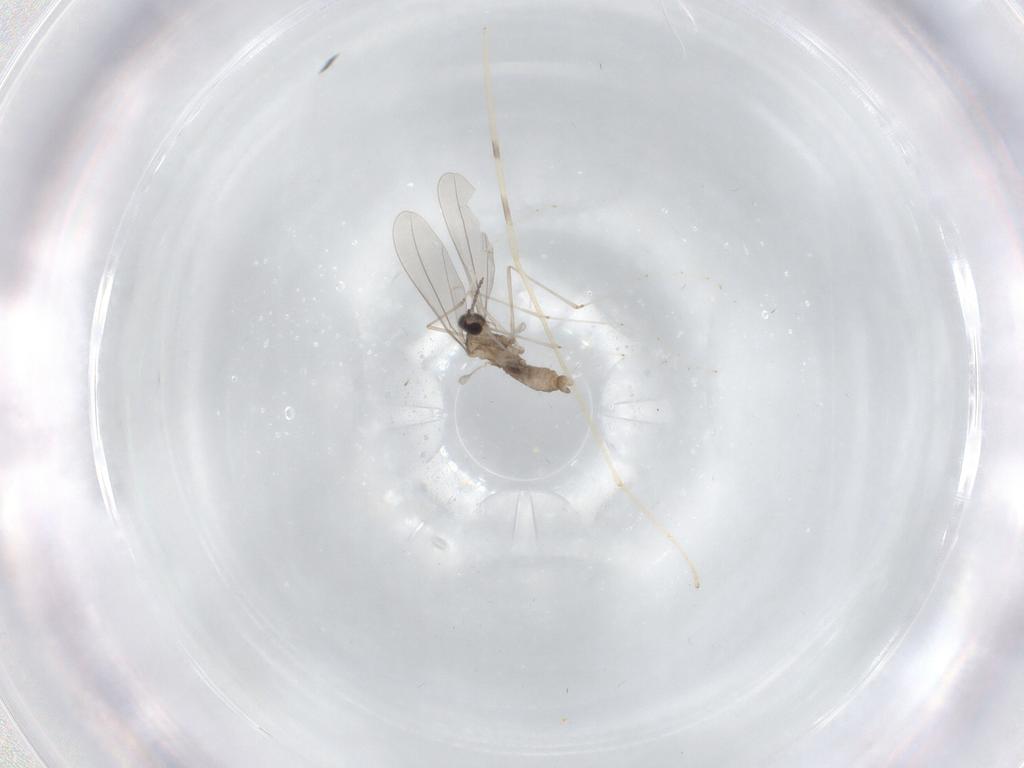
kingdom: Animalia
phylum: Arthropoda
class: Insecta
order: Diptera
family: Limoniidae
